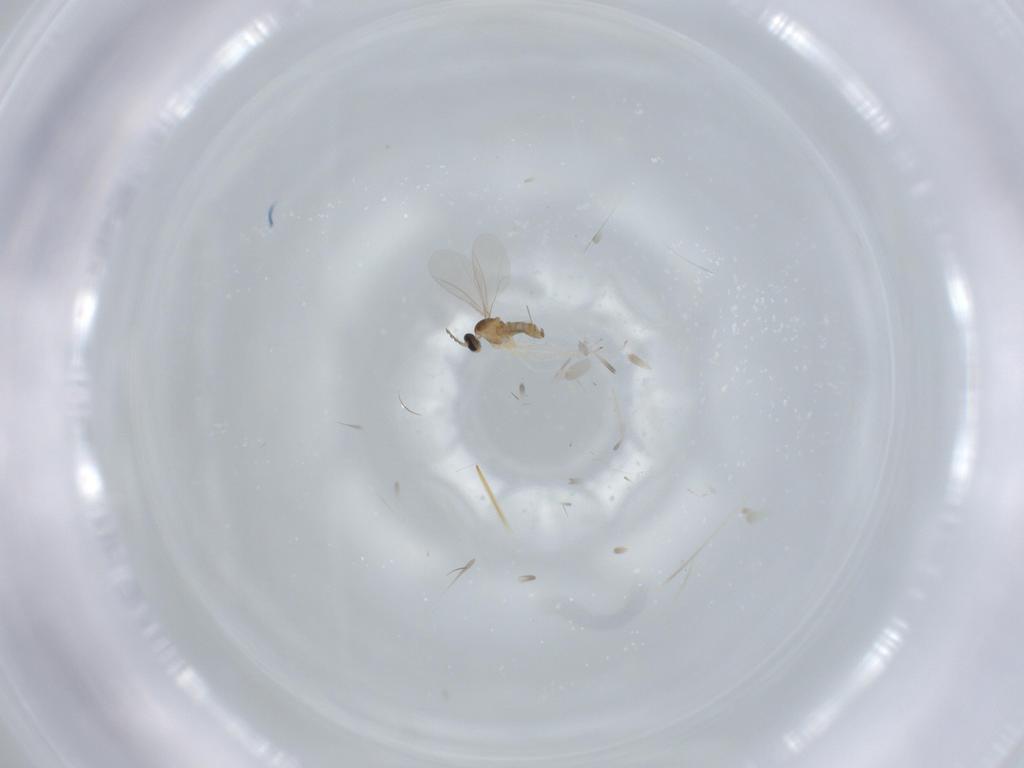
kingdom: Animalia
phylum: Arthropoda
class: Insecta
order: Diptera
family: Cecidomyiidae
